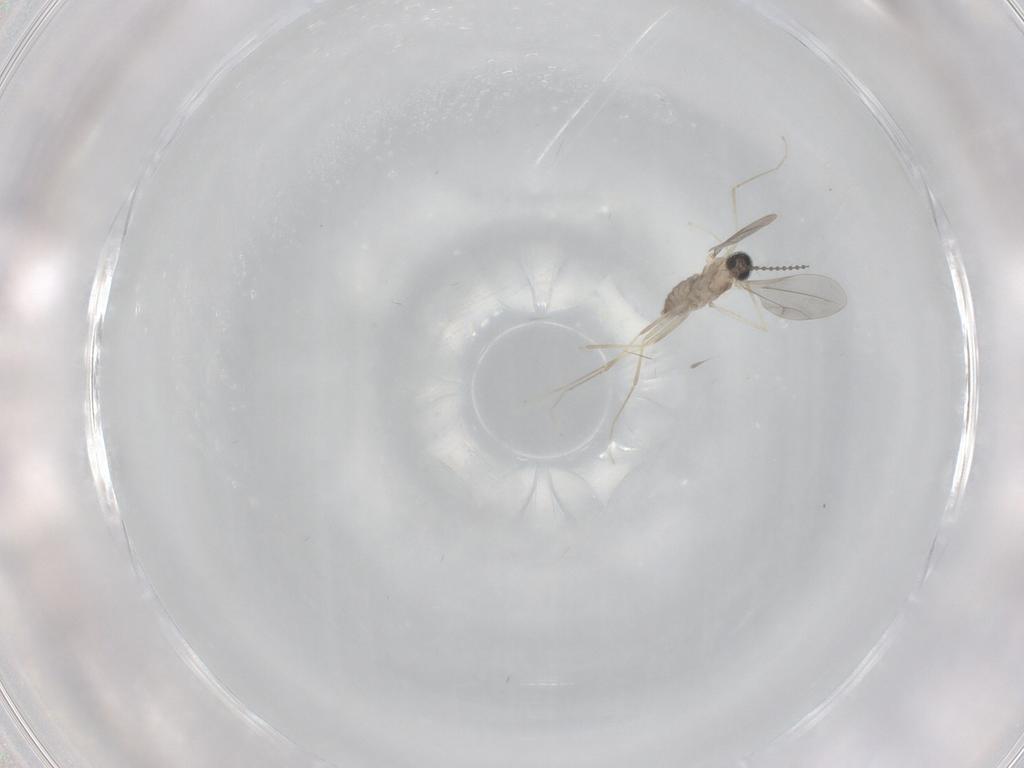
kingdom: Animalia
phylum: Arthropoda
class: Insecta
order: Diptera
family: Cecidomyiidae
